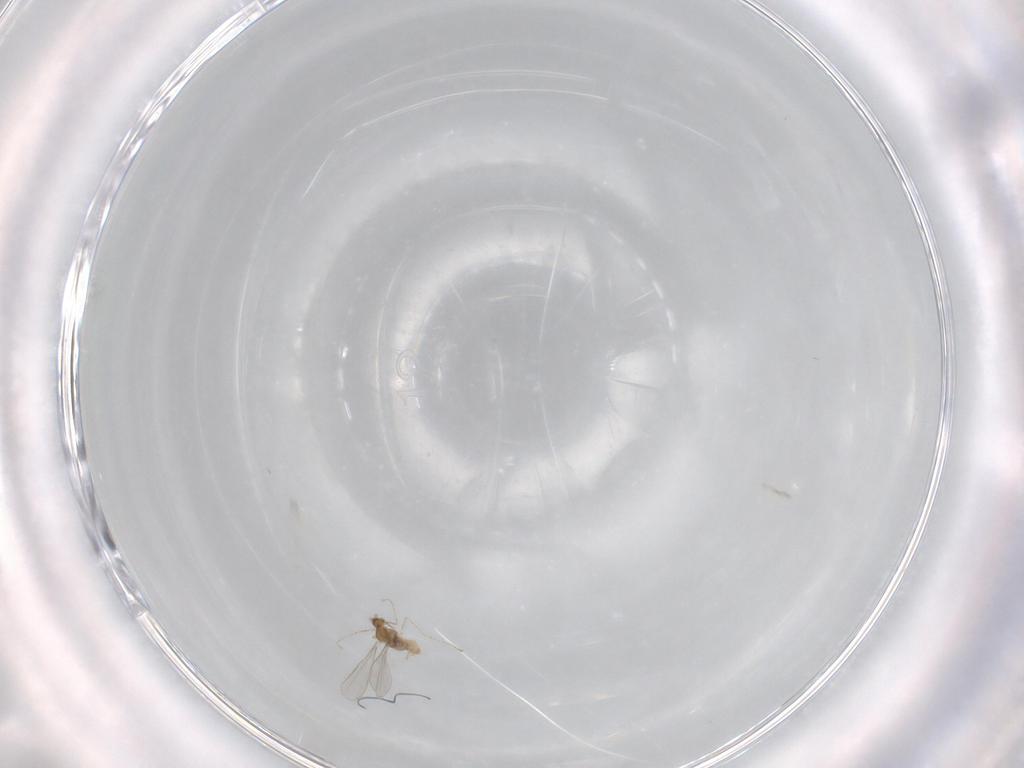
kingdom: Animalia
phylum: Arthropoda
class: Insecta
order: Diptera
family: Cecidomyiidae
